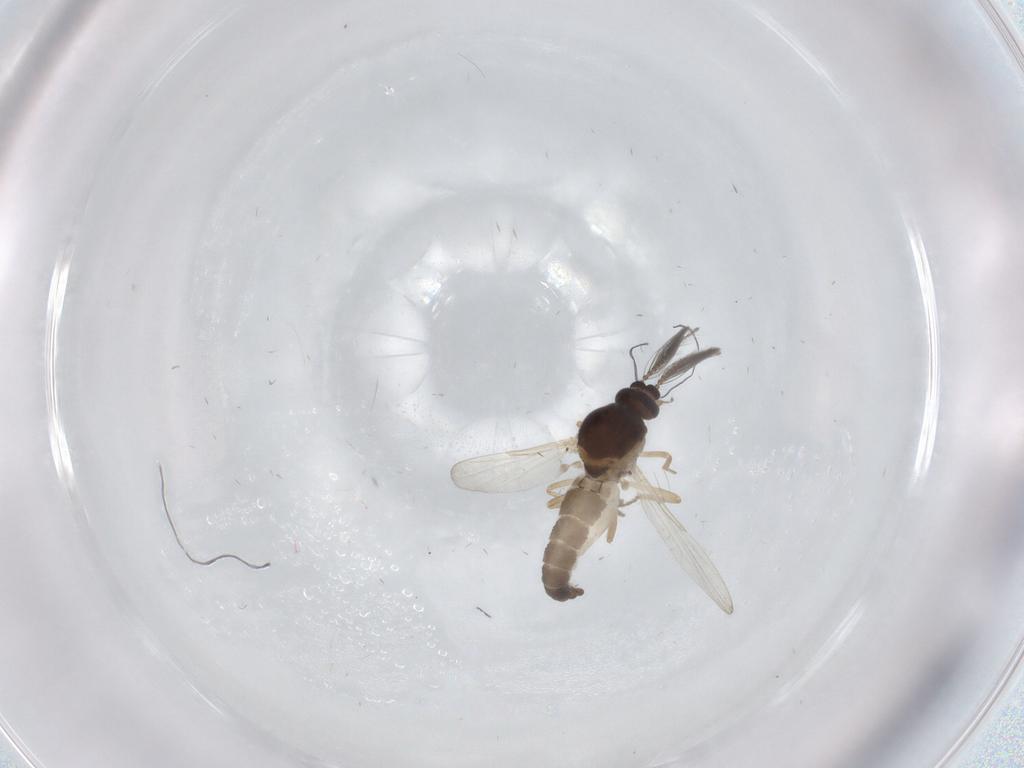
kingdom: Animalia
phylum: Arthropoda
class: Insecta
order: Diptera
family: Ceratopogonidae
